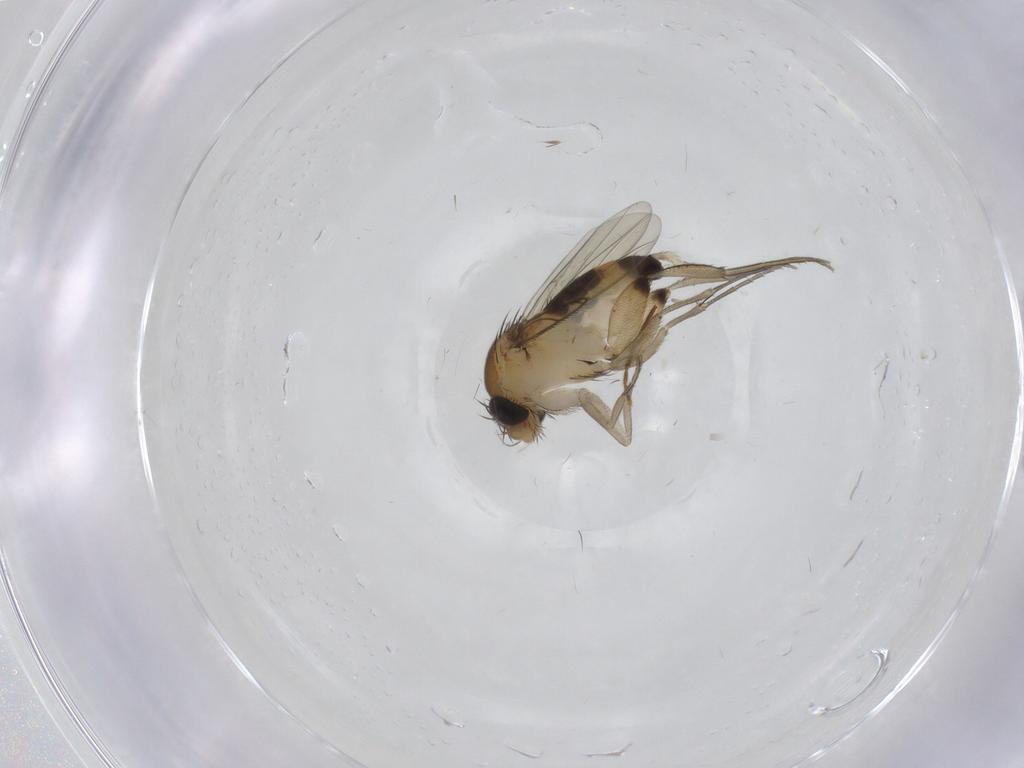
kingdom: Animalia
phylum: Arthropoda
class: Insecta
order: Diptera
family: Phoridae
